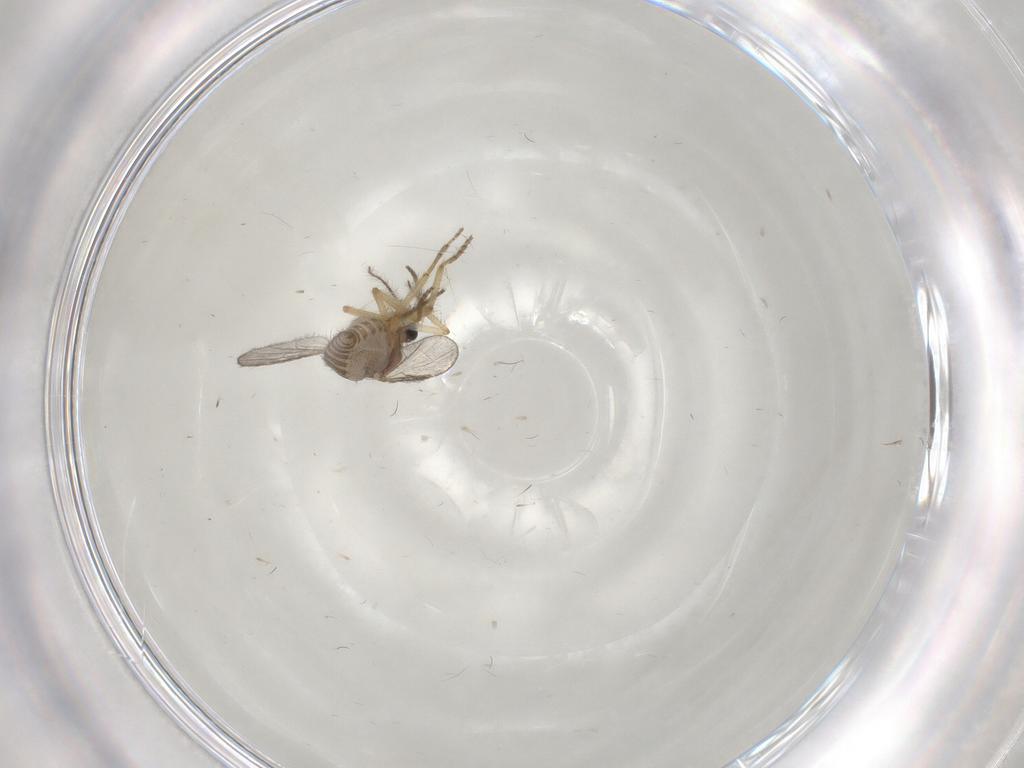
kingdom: Animalia
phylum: Arthropoda
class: Insecta
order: Diptera
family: Ceratopogonidae
